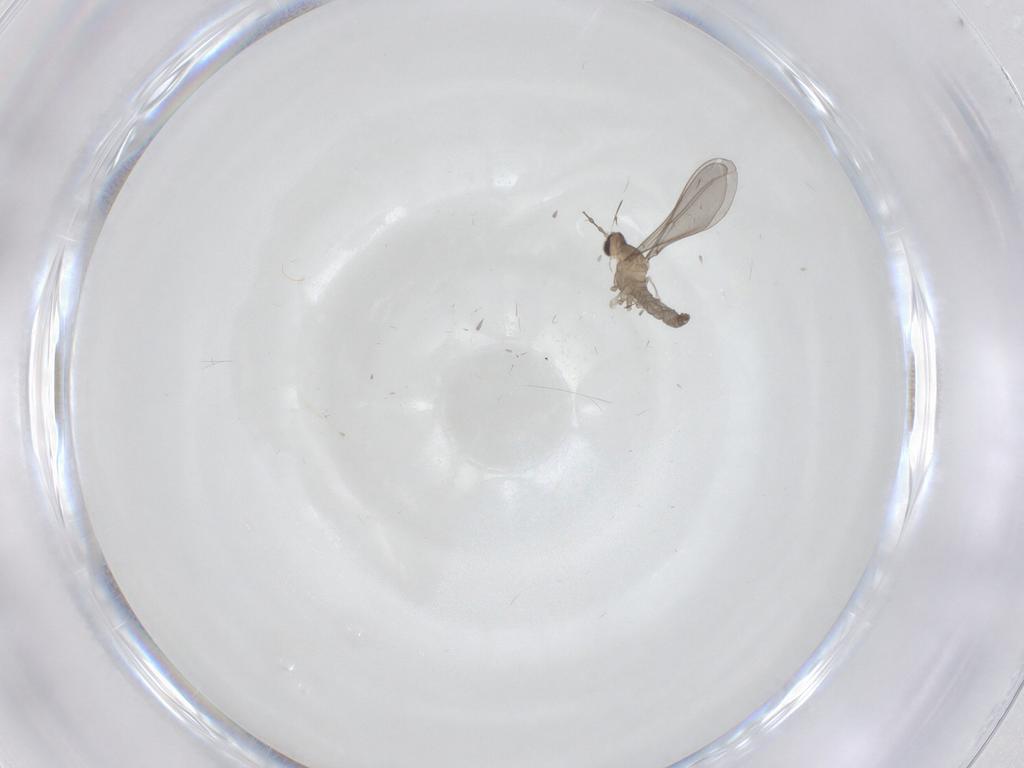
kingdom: Animalia
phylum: Arthropoda
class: Insecta
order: Diptera
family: Cecidomyiidae
